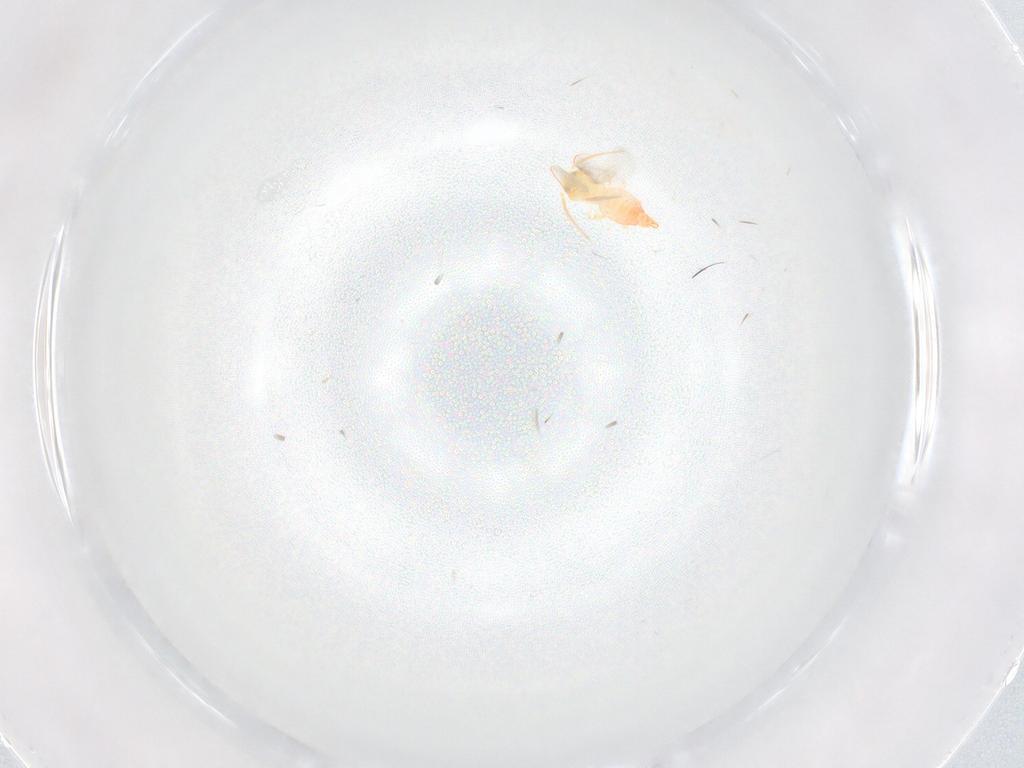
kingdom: Animalia
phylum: Arthropoda
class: Insecta
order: Hemiptera
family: Aleyrodidae
